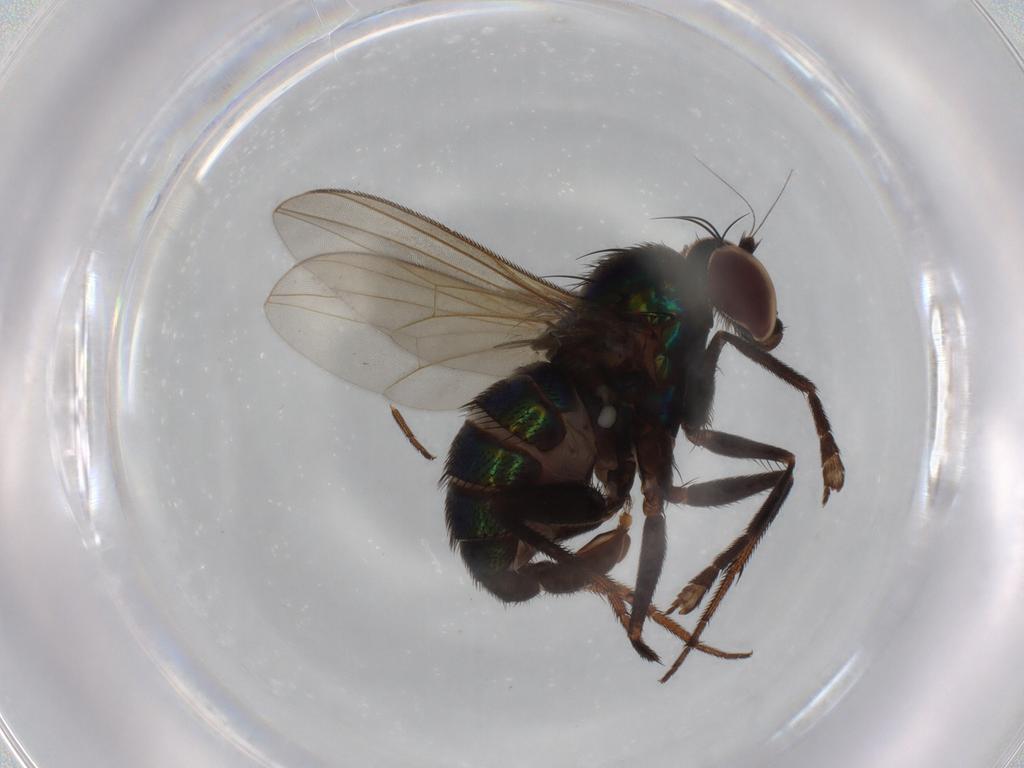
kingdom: Animalia
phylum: Arthropoda
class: Insecta
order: Diptera
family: Dolichopodidae
